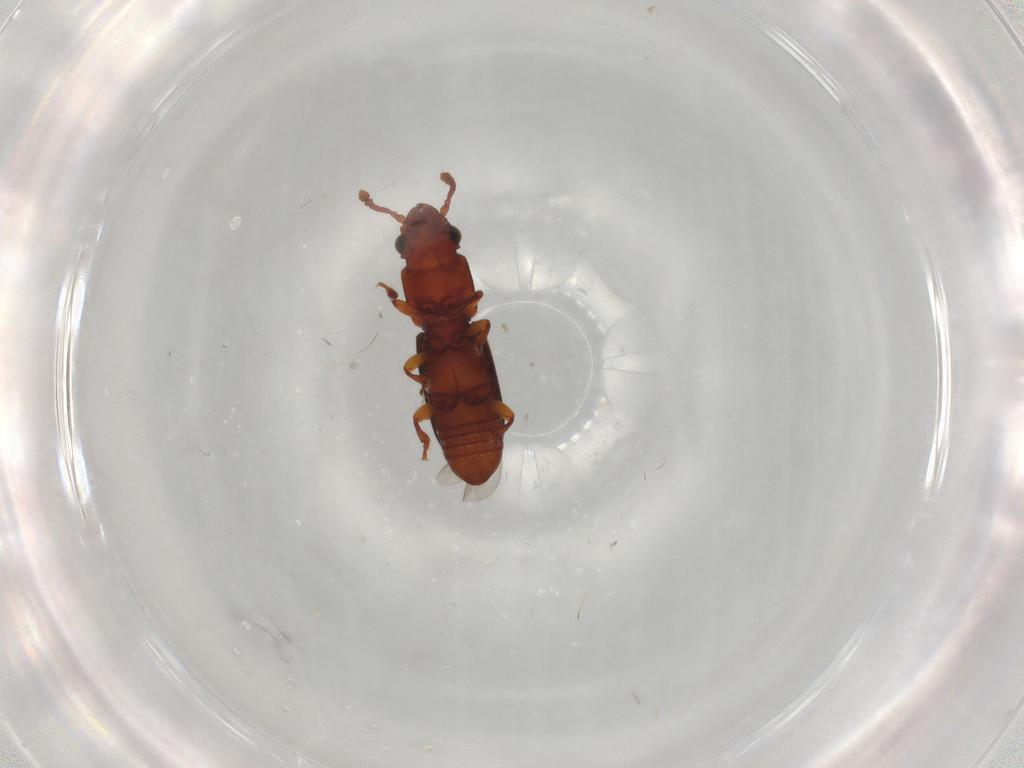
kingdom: Animalia
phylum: Arthropoda
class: Insecta
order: Coleoptera
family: Monotomidae
